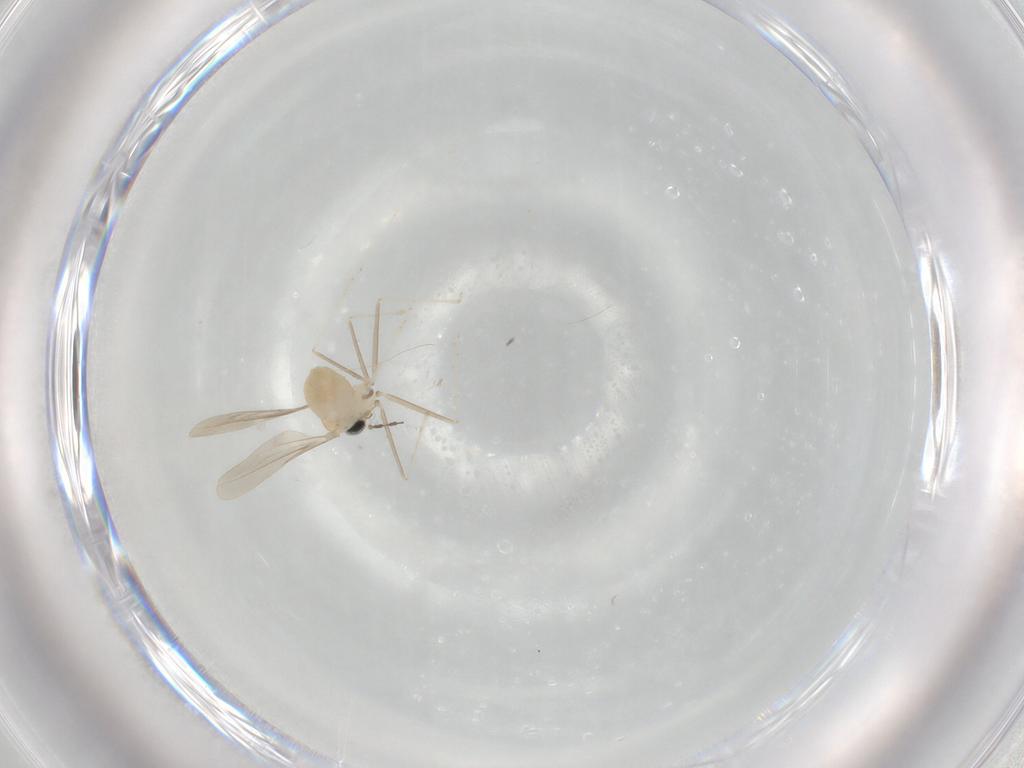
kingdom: Animalia
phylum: Arthropoda
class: Insecta
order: Diptera
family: Cecidomyiidae
